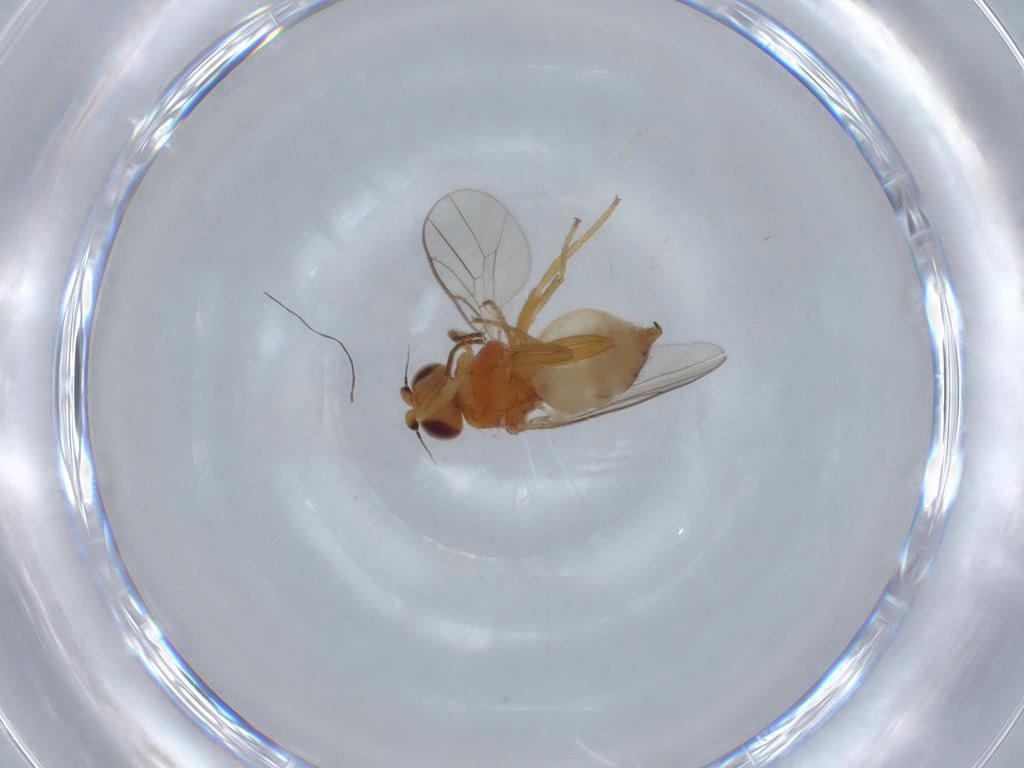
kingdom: Animalia
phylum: Arthropoda
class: Insecta
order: Diptera
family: Chloropidae
